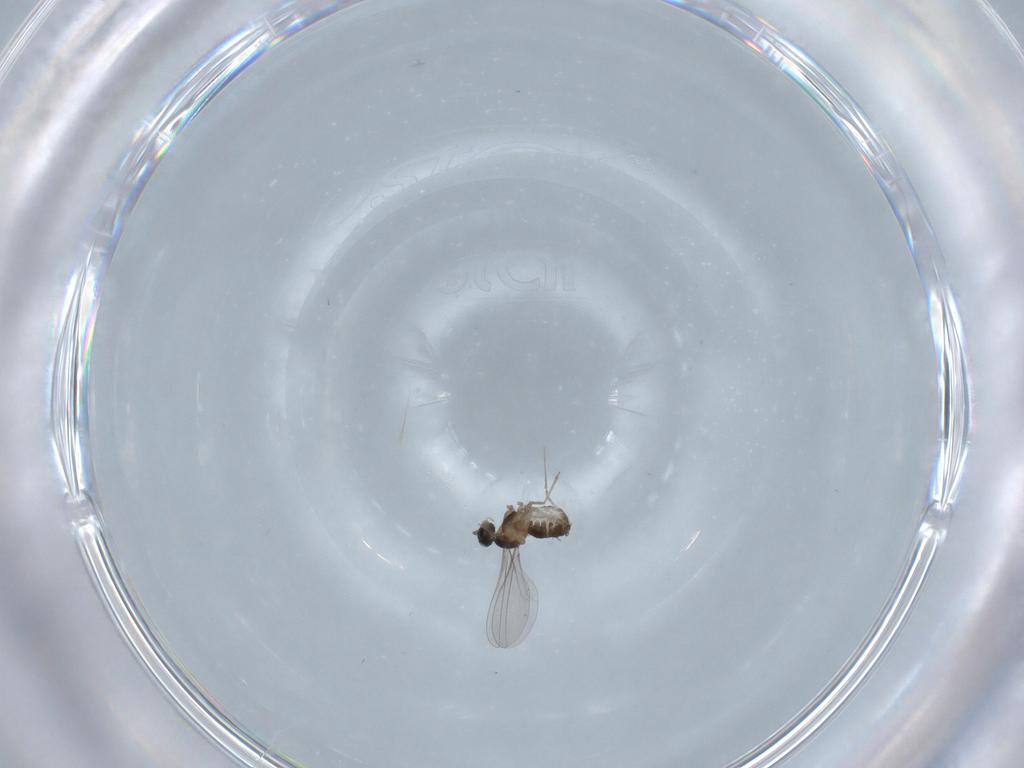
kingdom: Animalia
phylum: Arthropoda
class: Insecta
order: Diptera
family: Cecidomyiidae
